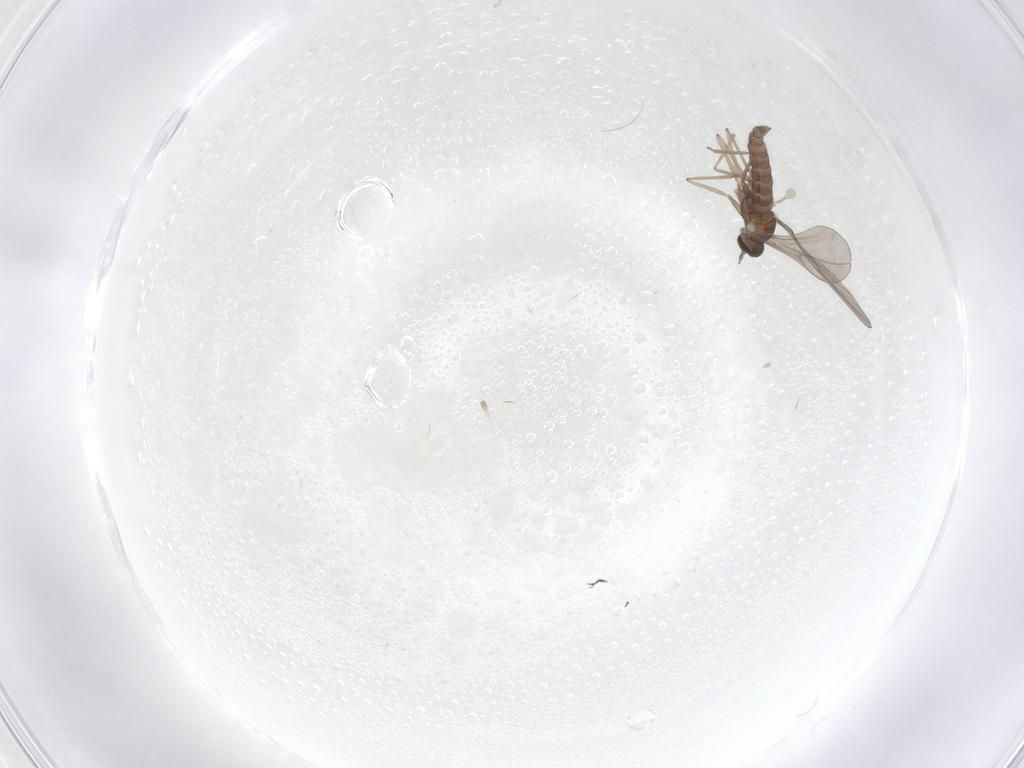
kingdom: Animalia
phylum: Arthropoda
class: Insecta
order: Diptera
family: Cecidomyiidae
